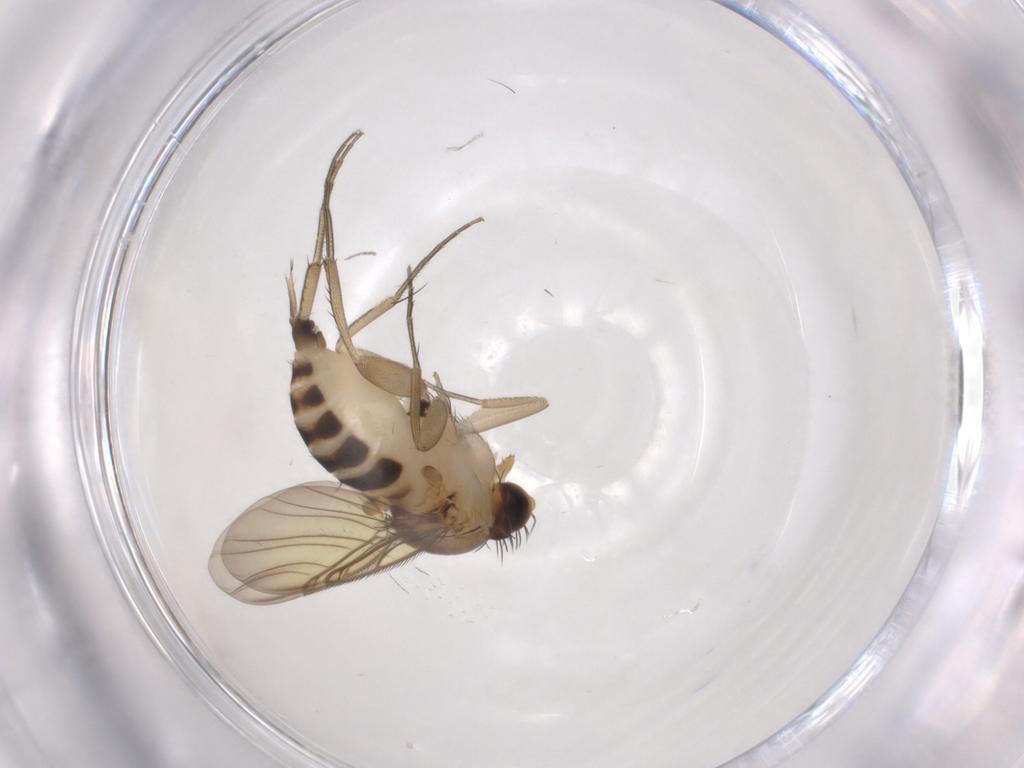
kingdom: Animalia
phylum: Arthropoda
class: Insecta
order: Diptera
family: Phoridae
